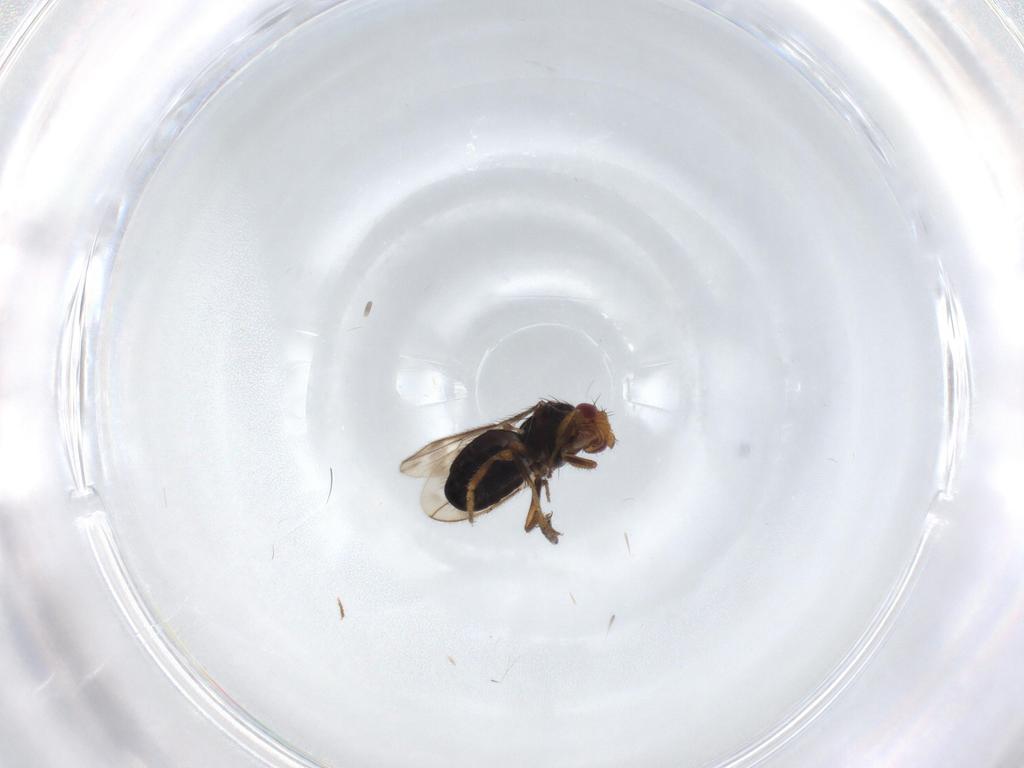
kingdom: Animalia
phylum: Arthropoda
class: Insecta
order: Diptera
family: Sphaeroceridae
